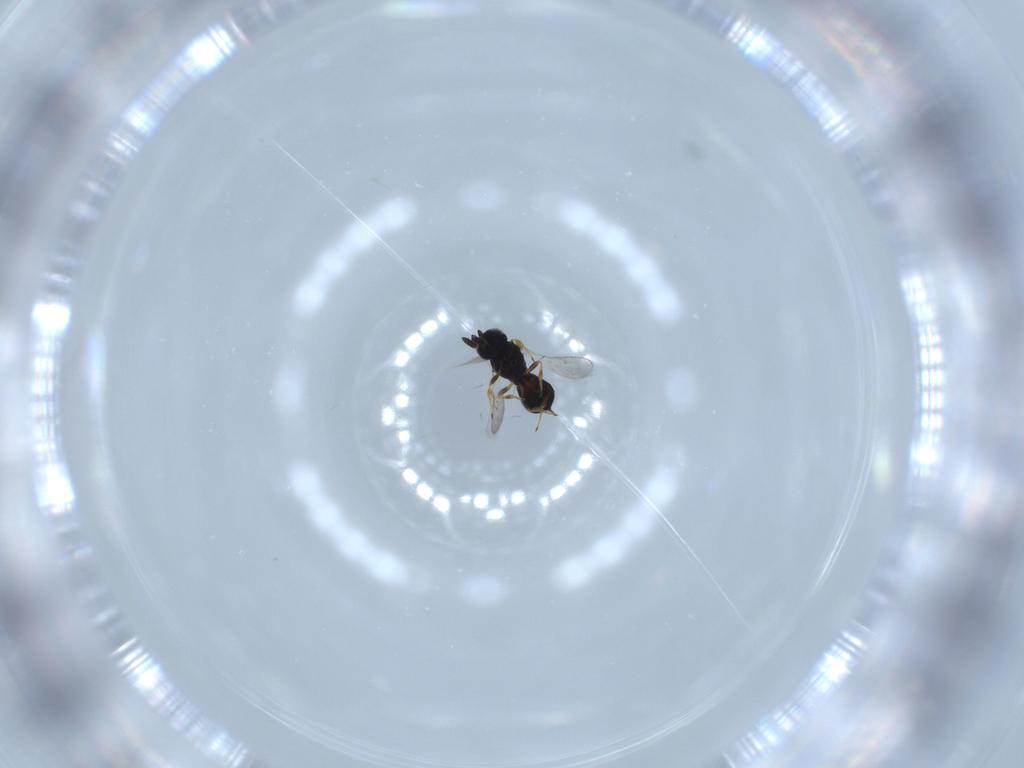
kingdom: Animalia
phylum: Arthropoda
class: Insecta
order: Hymenoptera
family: Scelionidae
